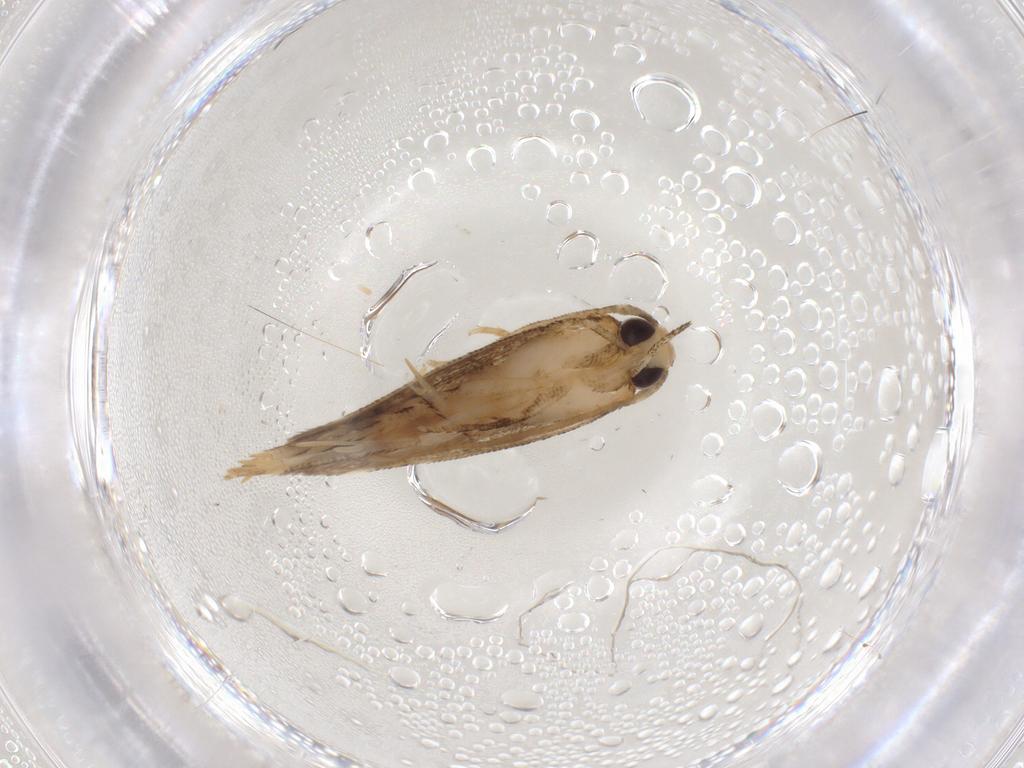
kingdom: Animalia
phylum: Arthropoda
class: Insecta
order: Lepidoptera
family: Cosmopterigidae
